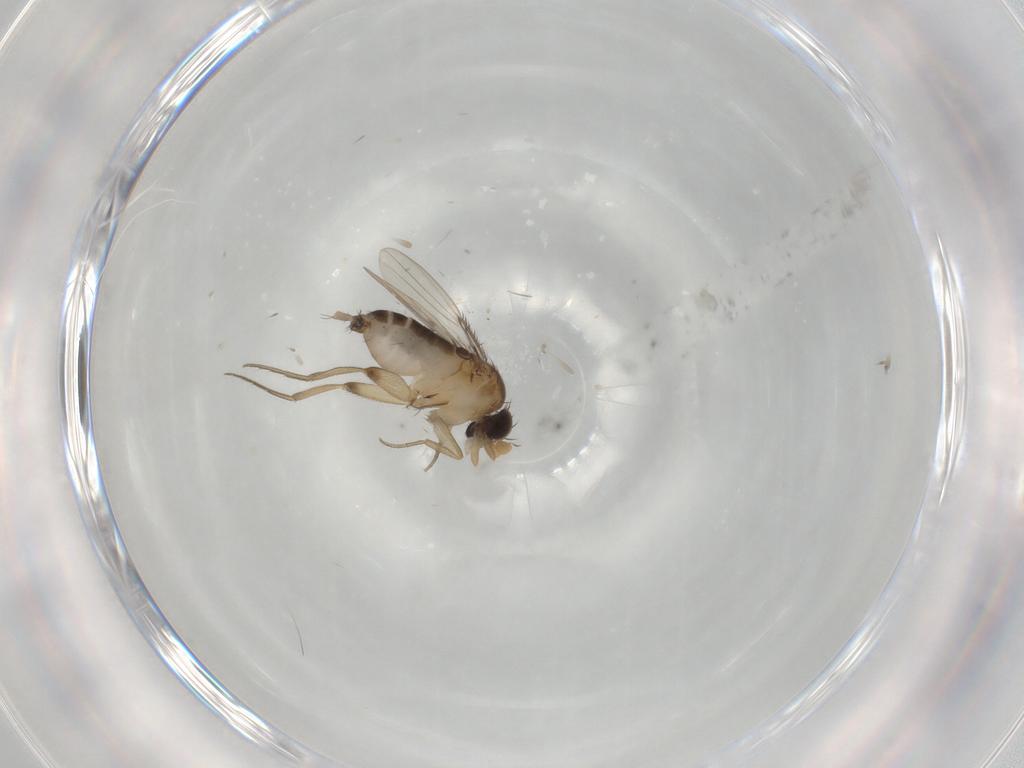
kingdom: Animalia
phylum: Arthropoda
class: Insecta
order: Diptera
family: Phoridae
